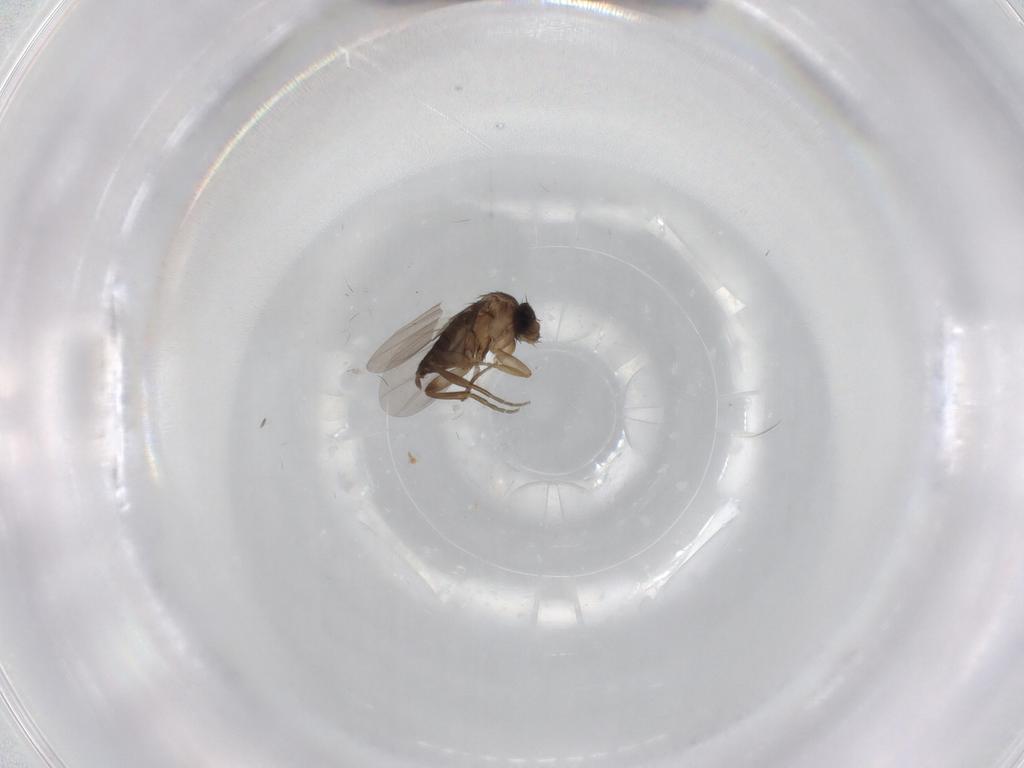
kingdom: Animalia
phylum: Arthropoda
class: Insecta
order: Diptera
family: Phoridae
